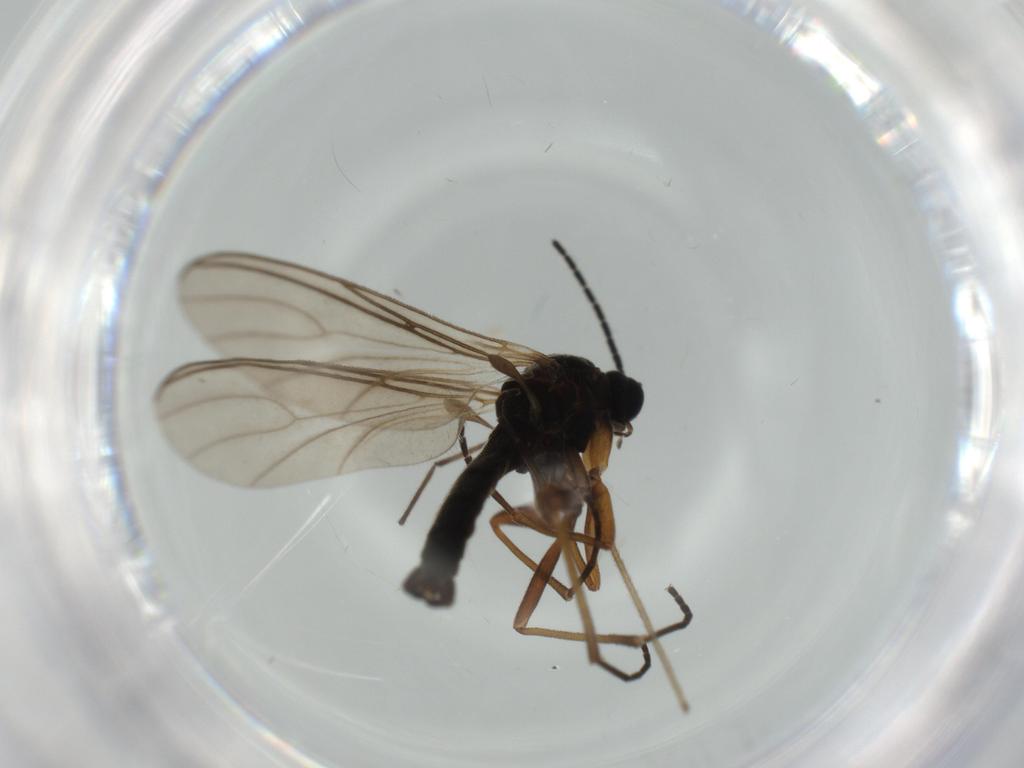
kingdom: Animalia
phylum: Arthropoda
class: Insecta
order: Diptera
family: Sciaridae
